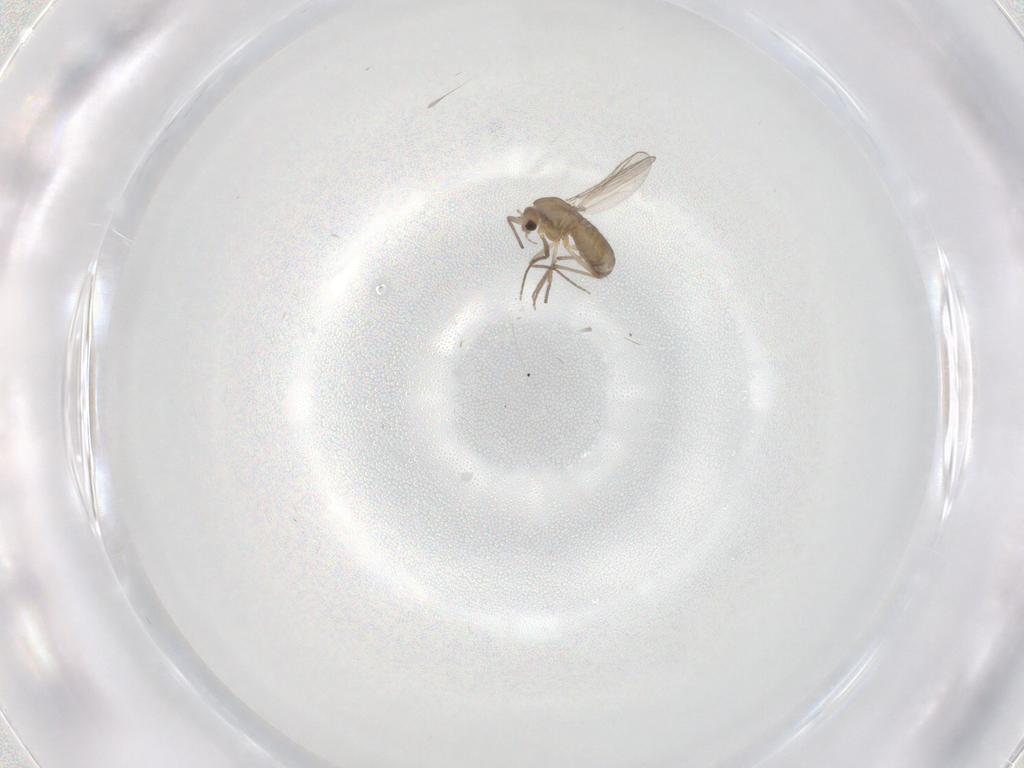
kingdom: Animalia
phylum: Arthropoda
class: Insecta
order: Diptera
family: Chironomidae
